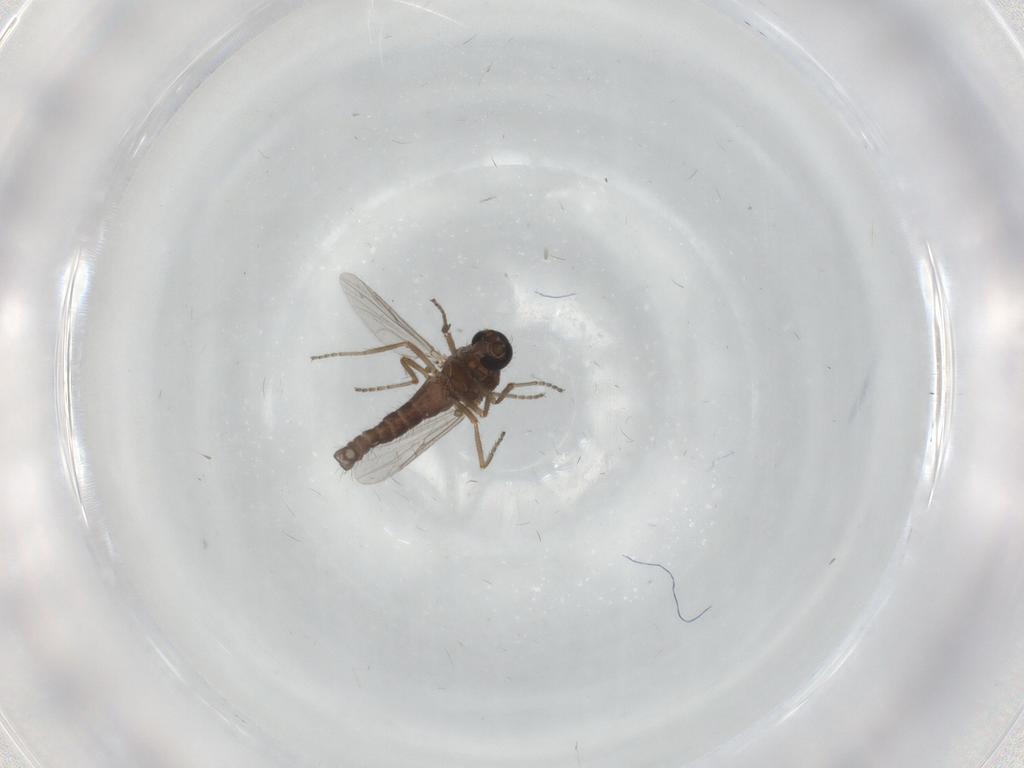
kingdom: Animalia
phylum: Arthropoda
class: Insecta
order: Diptera
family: Ceratopogonidae
